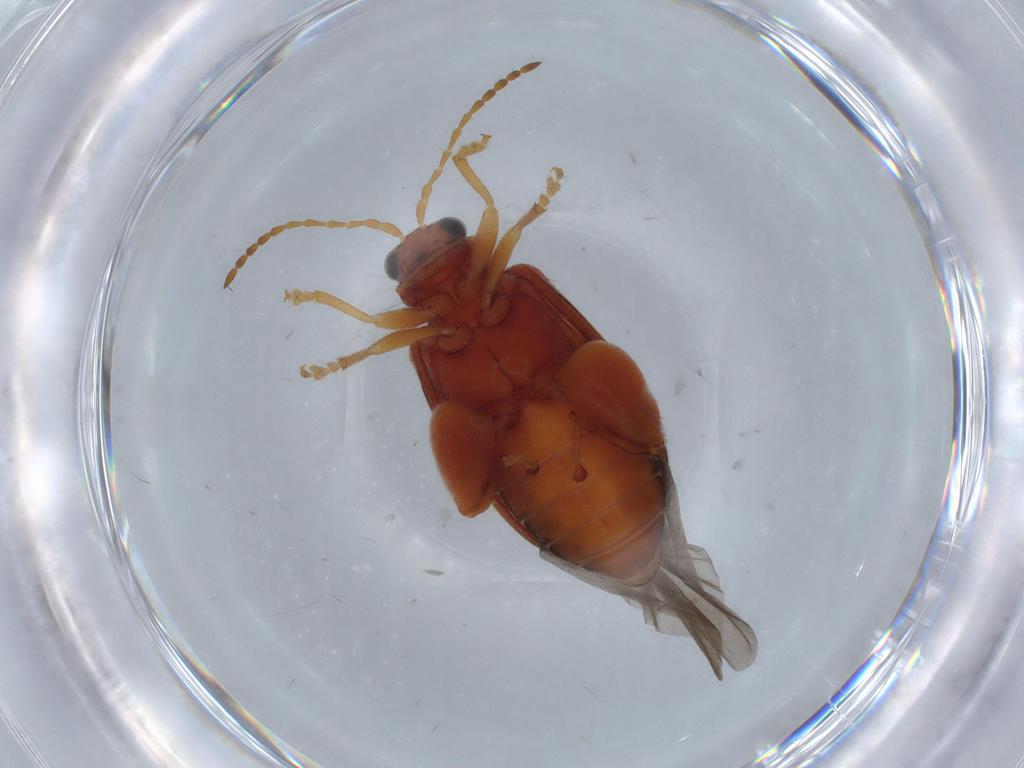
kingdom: Animalia
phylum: Arthropoda
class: Insecta
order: Coleoptera
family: Chrysomelidae
